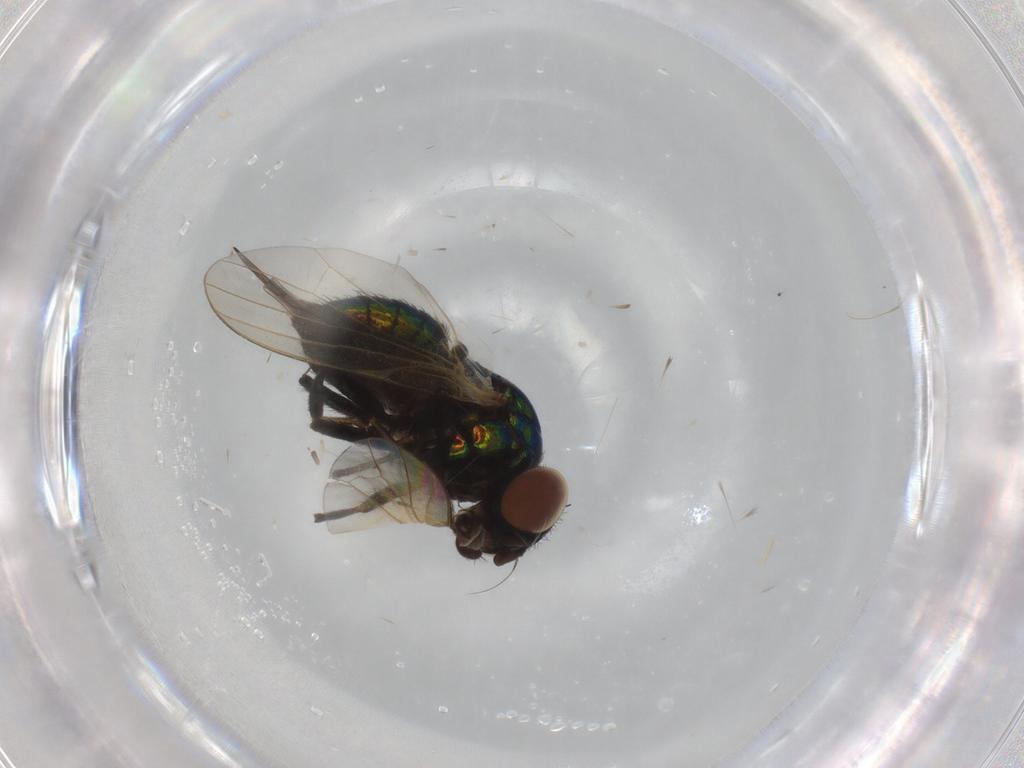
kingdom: Animalia
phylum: Arthropoda
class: Insecta
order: Diptera
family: Lonchaeidae
